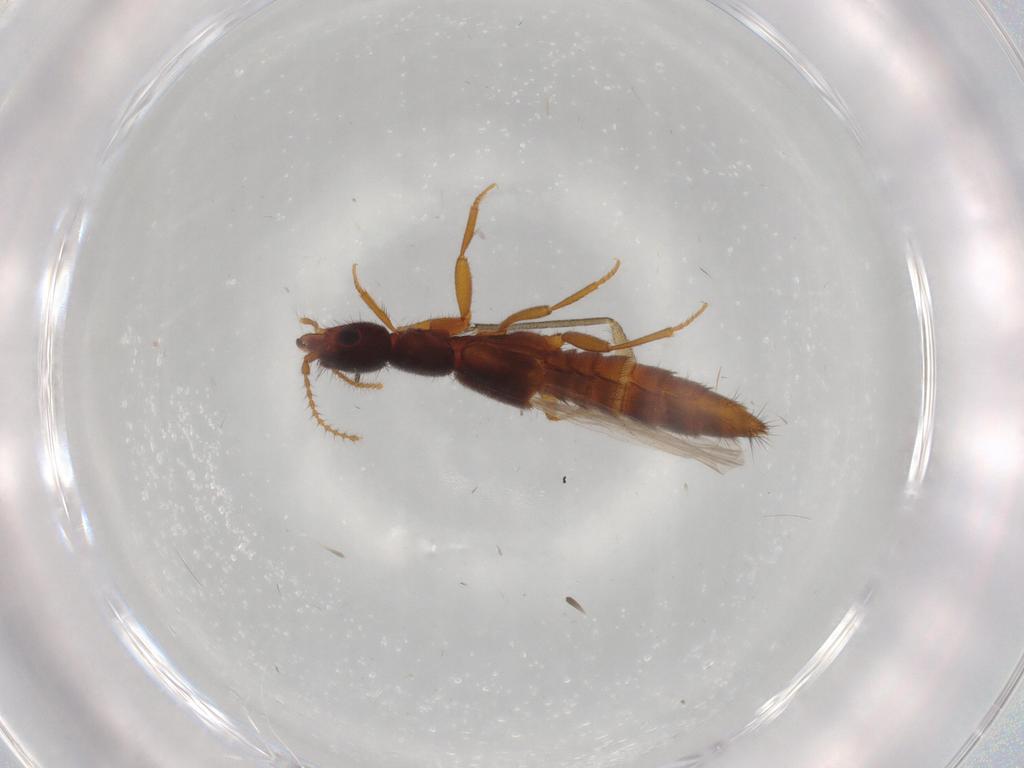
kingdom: Animalia
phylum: Arthropoda
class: Insecta
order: Coleoptera
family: Staphylinidae
